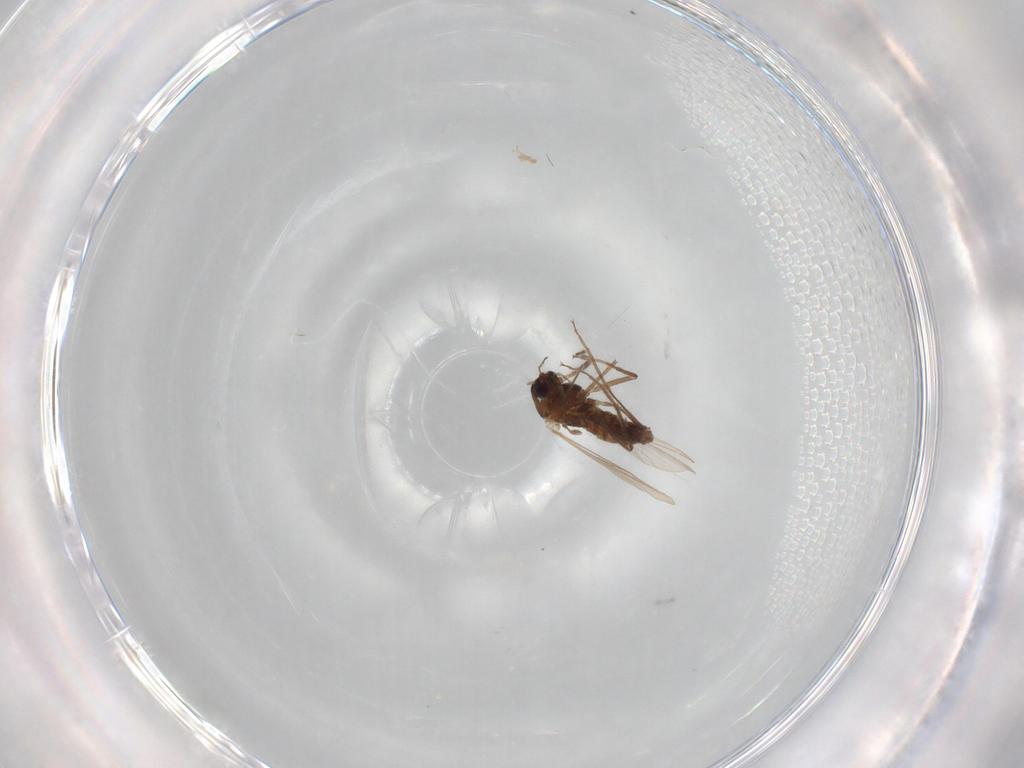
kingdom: Animalia
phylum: Arthropoda
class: Insecta
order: Diptera
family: Chironomidae
